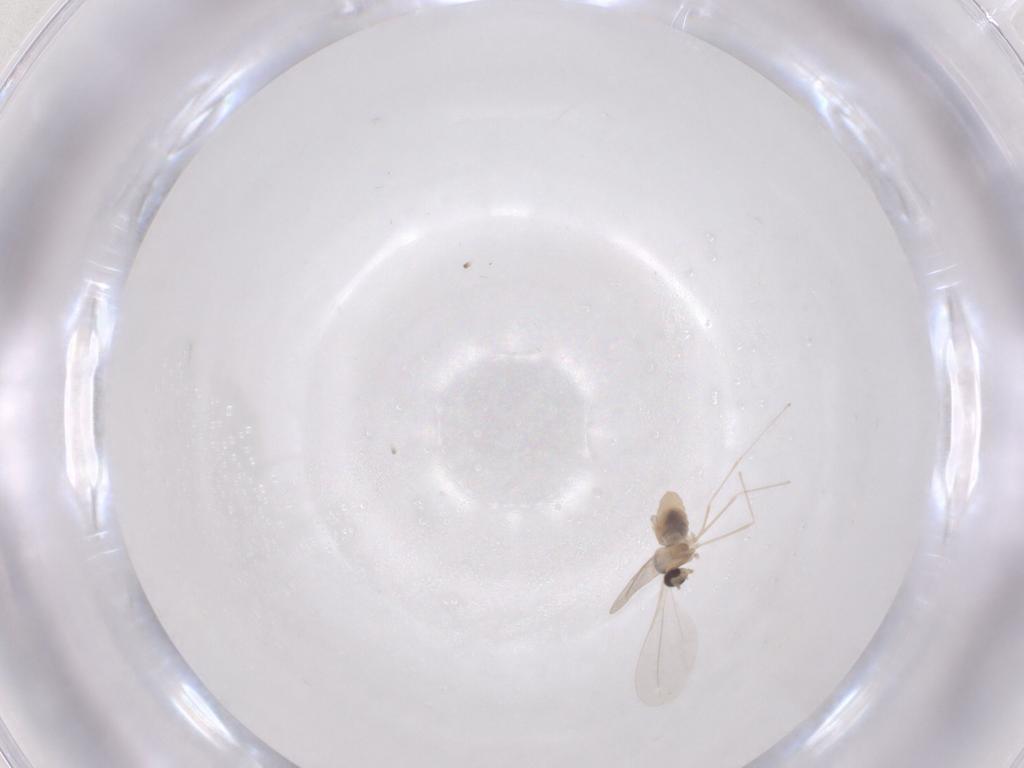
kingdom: Animalia
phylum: Arthropoda
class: Insecta
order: Diptera
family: Cecidomyiidae
